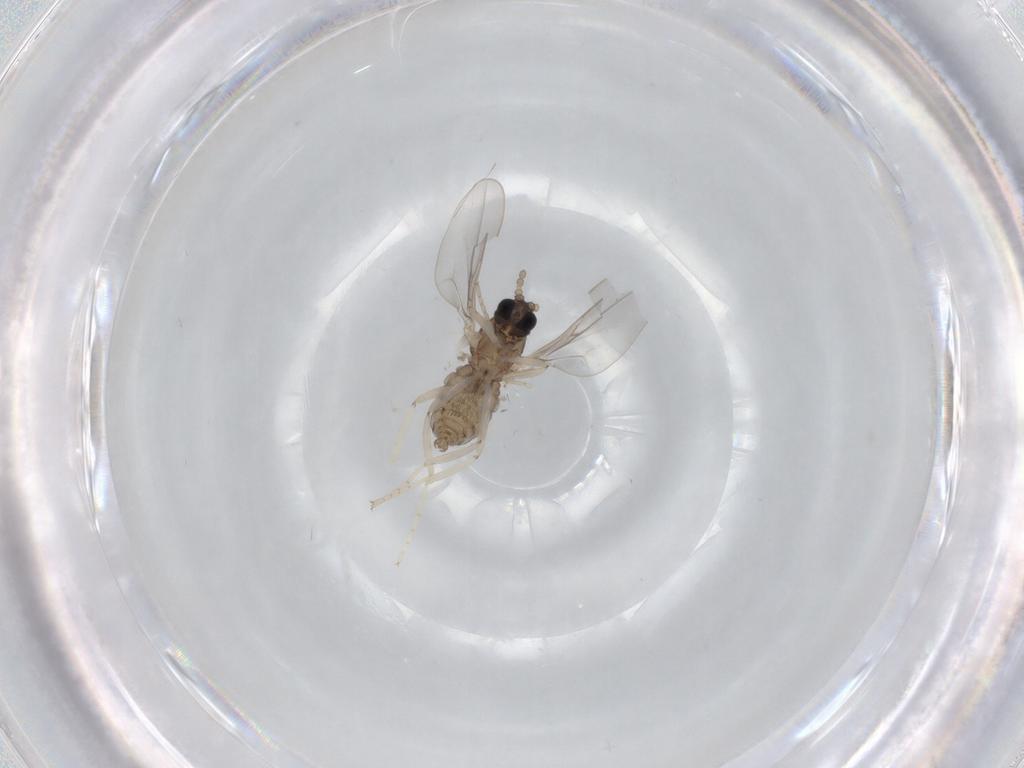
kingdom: Animalia
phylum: Arthropoda
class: Insecta
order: Diptera
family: Cecidomyiidae
